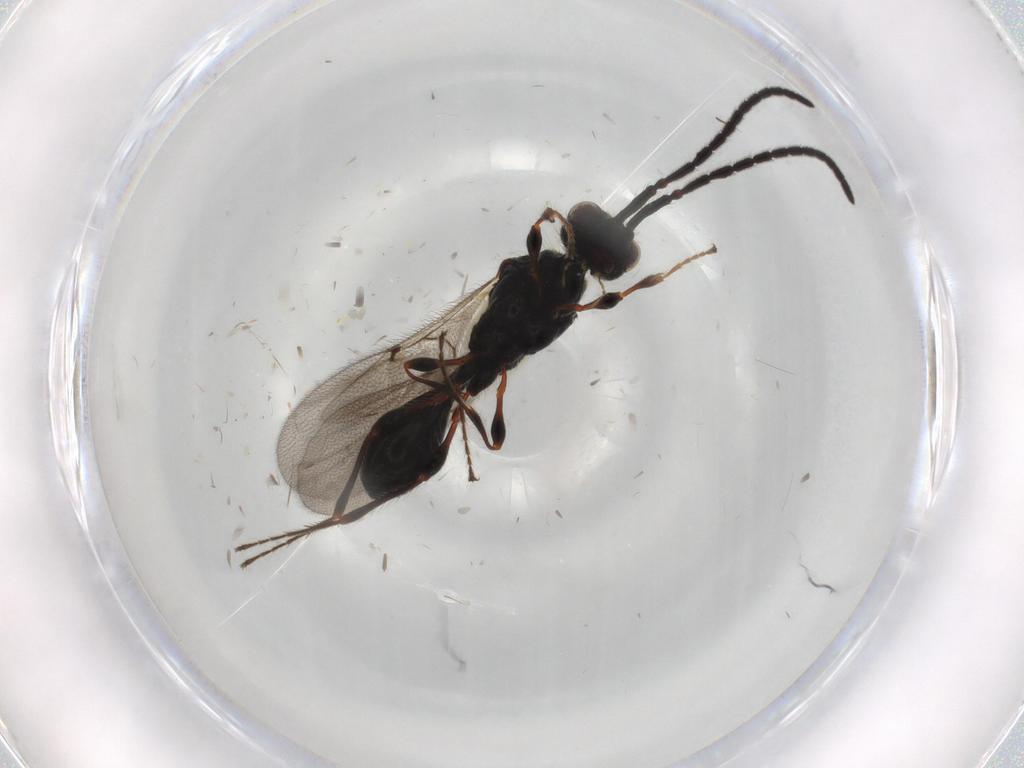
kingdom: Animalia
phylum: Arthropoda
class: Insecta
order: Hymenoptera
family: Diapriidae
